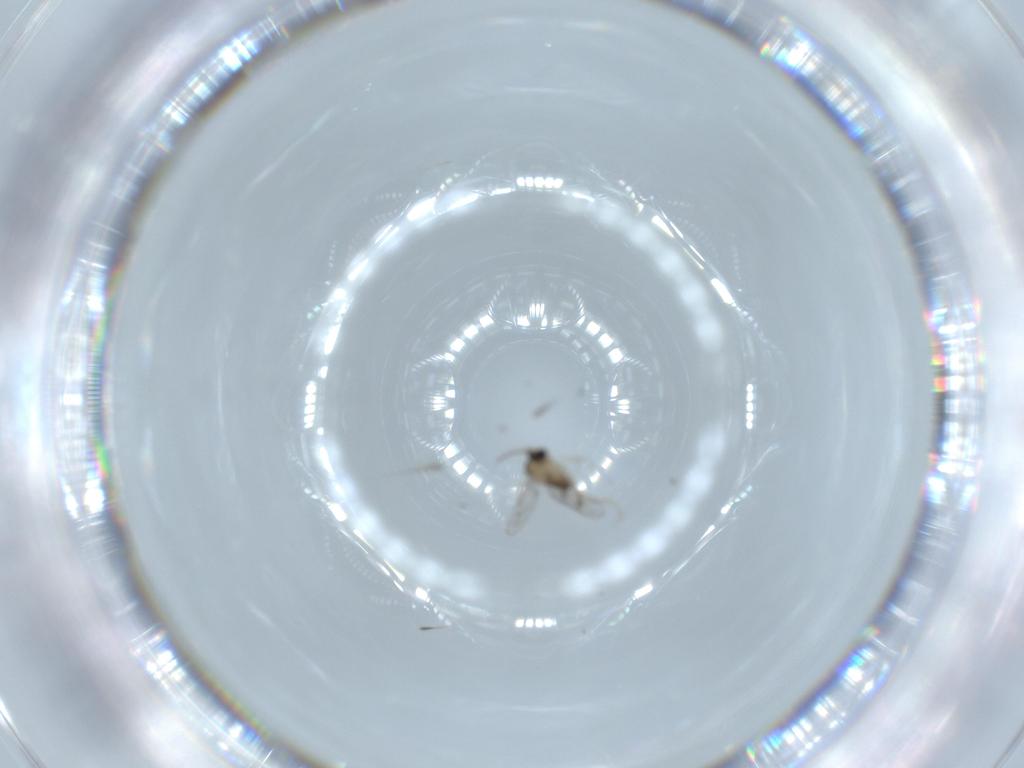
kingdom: Animalia
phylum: Arthropoda
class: Insecta
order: Diptera
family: Cecidomyiidae
